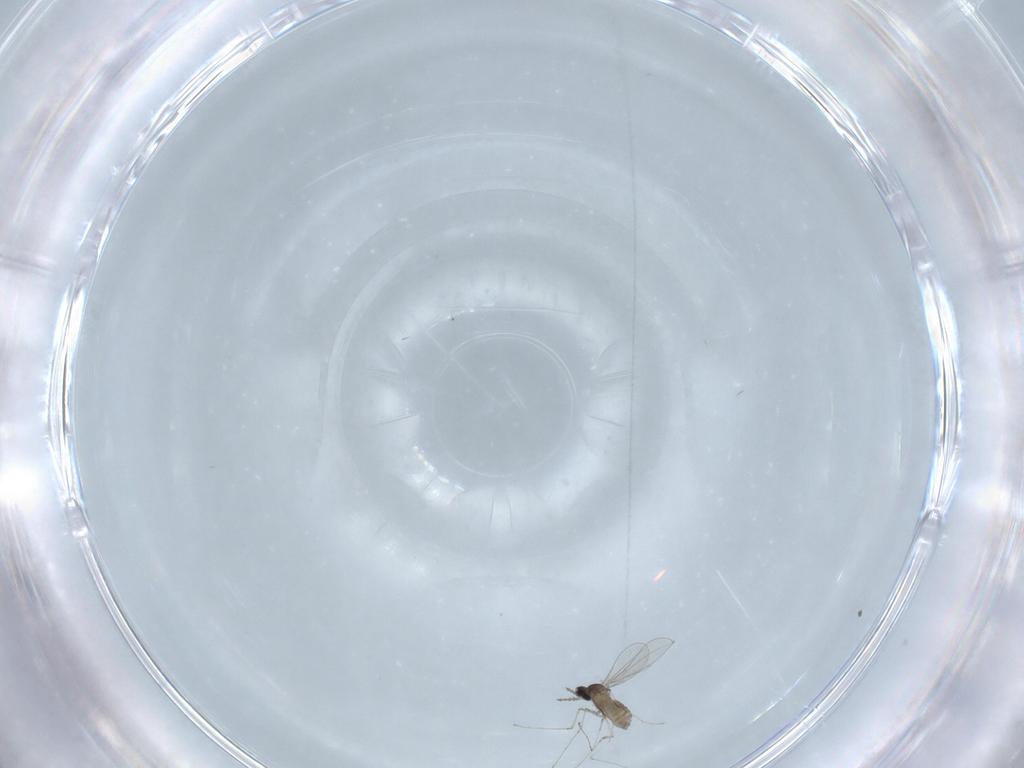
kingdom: Animalia
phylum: Arthropoda
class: Insecta
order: Diptera
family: Cecidomyiidae
